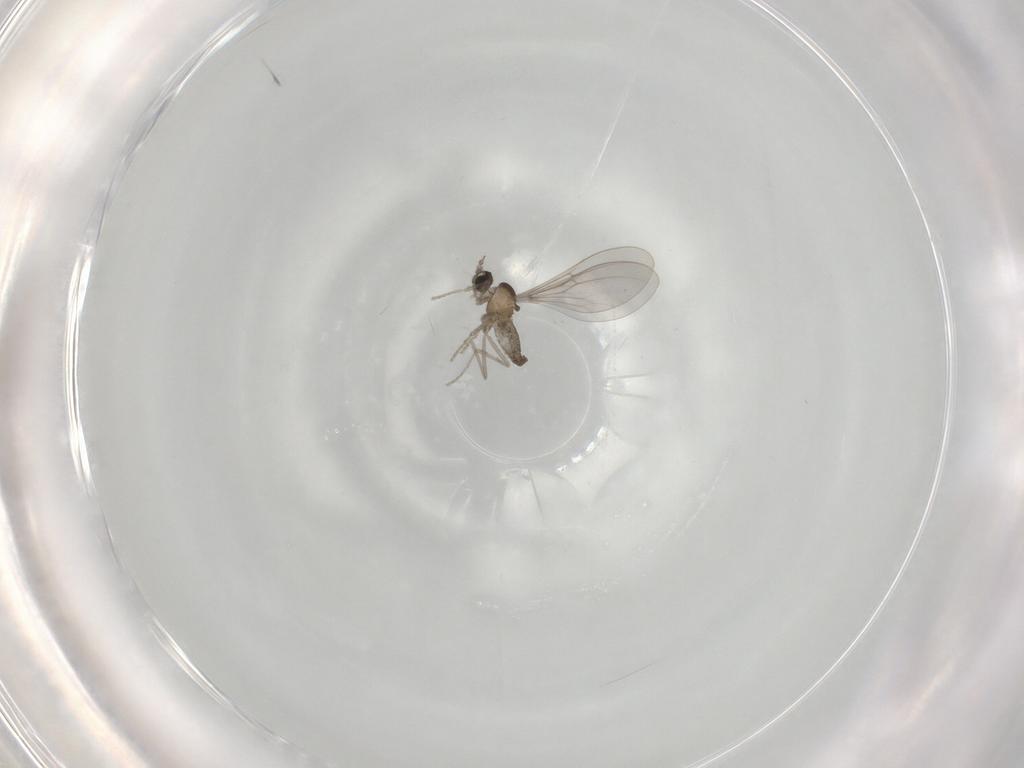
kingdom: Animalia
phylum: Arthropoda
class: Insecta
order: Diptera
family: Cecidomyiidae
